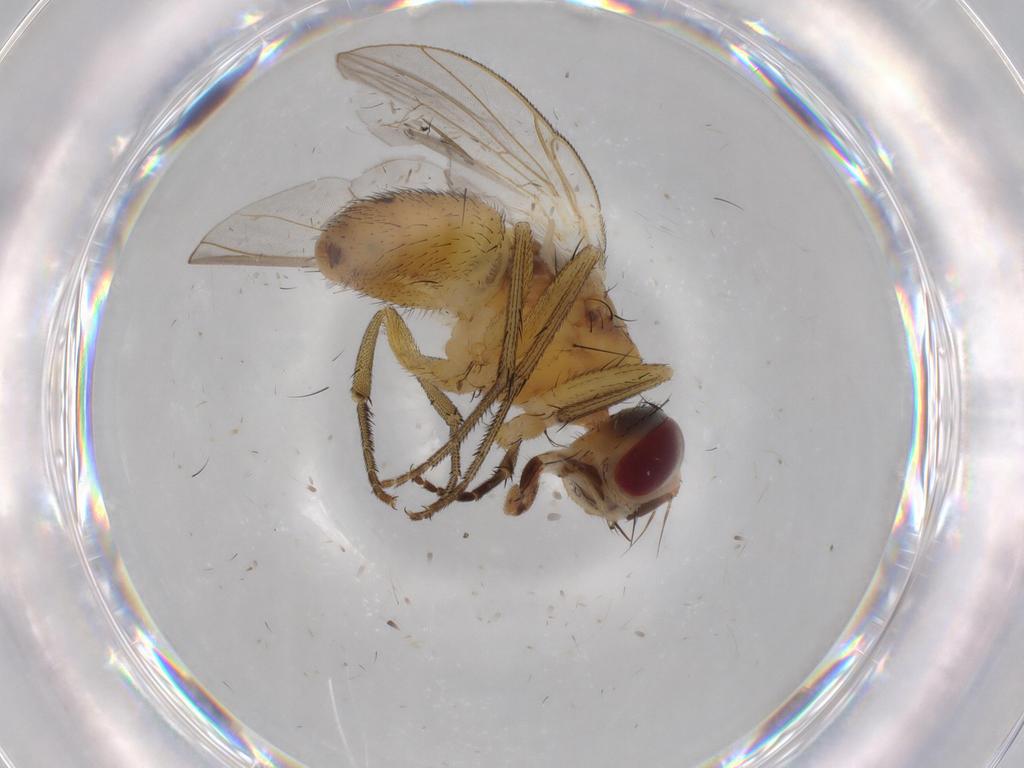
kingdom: Animalia
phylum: Arthropoda
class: Insecta
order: Diptera
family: Muscidae
